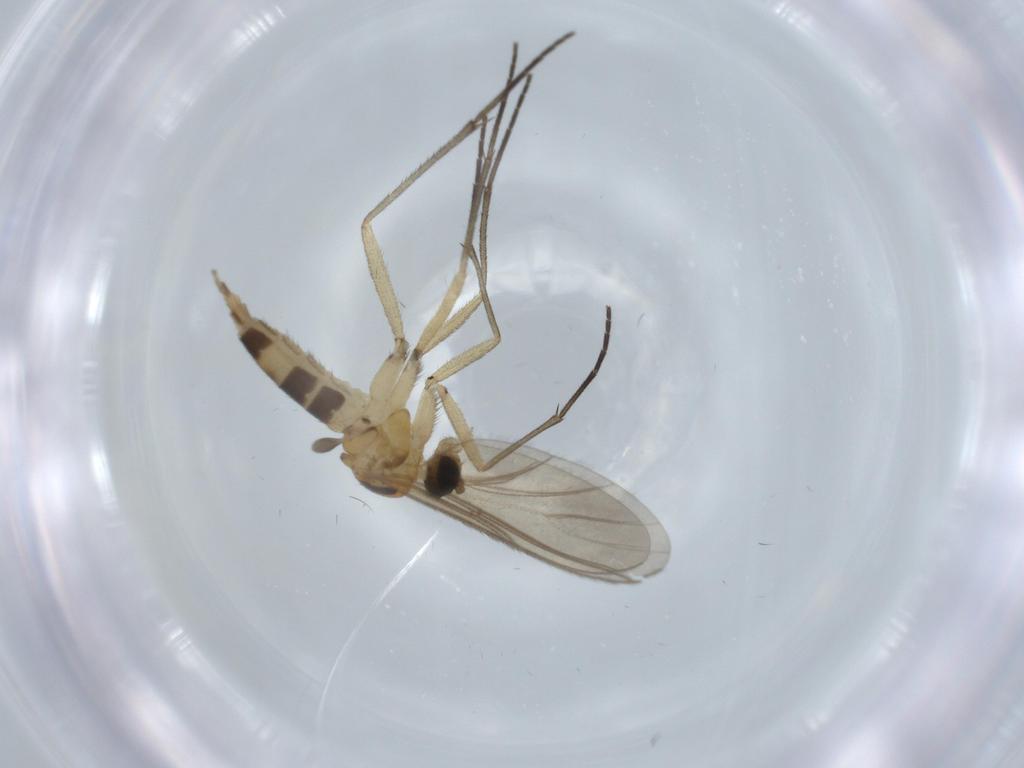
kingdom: Animalia
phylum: Arthropoda
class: Insecta
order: Diptera
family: Sciaridae
